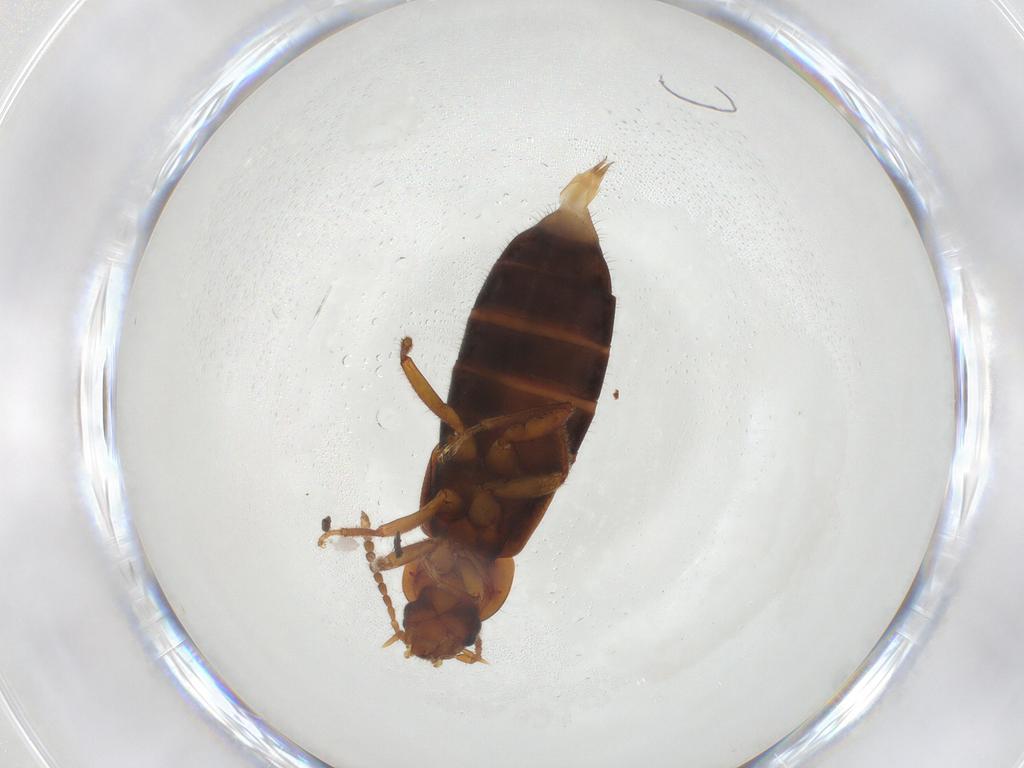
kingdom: Animalia
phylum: Arthropoda
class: Insecta
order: Coleoptera
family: Staphylinidae
